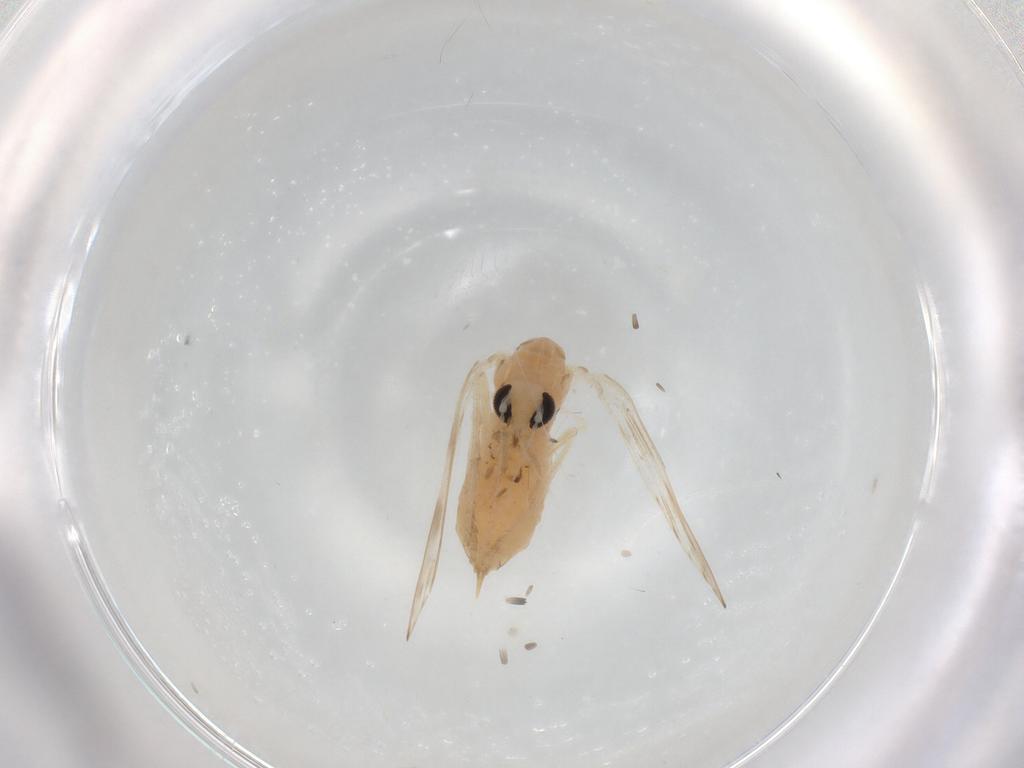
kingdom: Animalia
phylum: Arthropoda
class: Insecta
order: Diptera
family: Psychodidae
